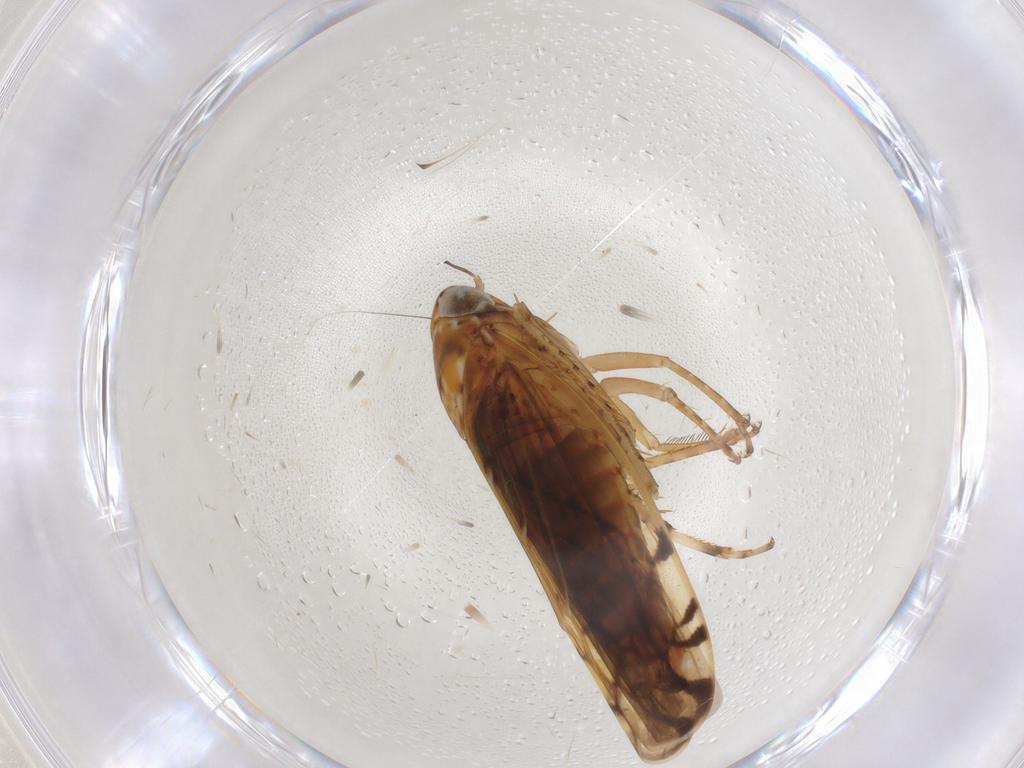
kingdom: Animalia
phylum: Arthropoda
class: Insecta
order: Hemiptera
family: Cicadellidae
